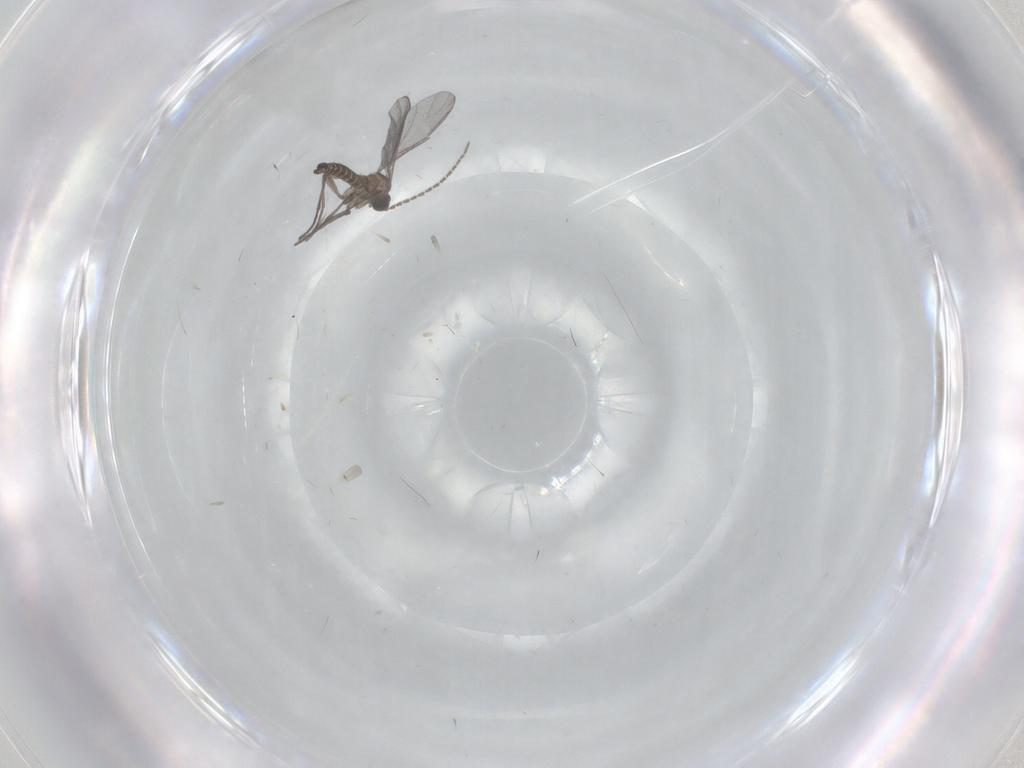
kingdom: Animalia
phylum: Arthropoda
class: Insecta
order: Diptera
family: Sciaridae
